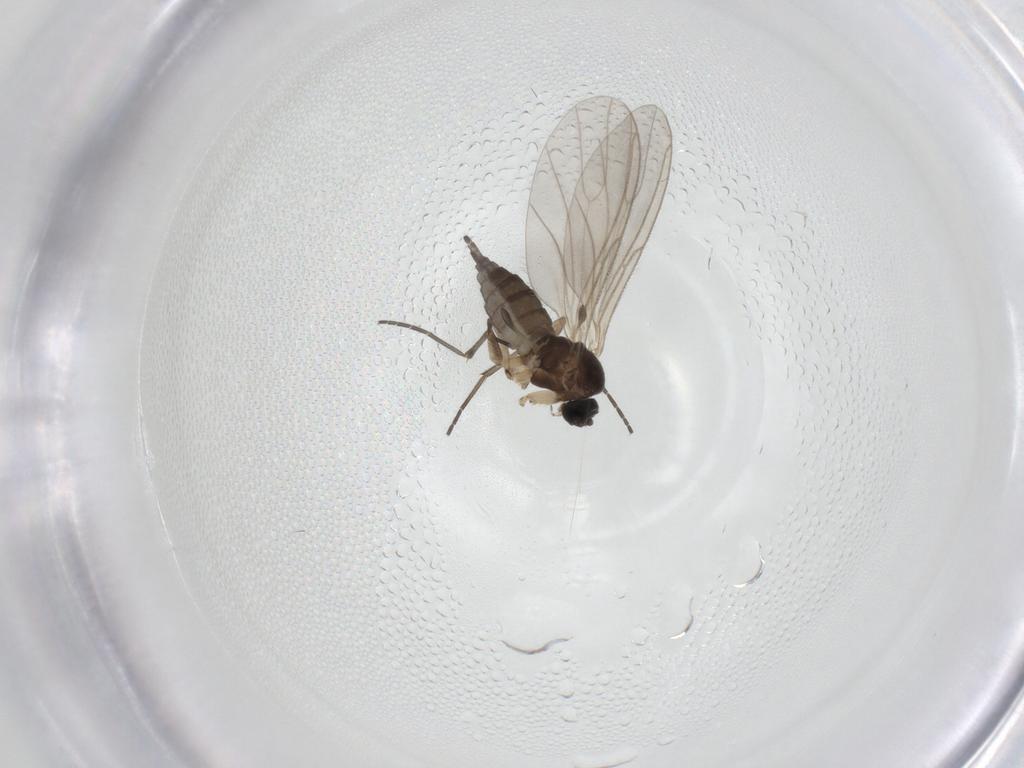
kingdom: Animalia
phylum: Arthropoda
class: Insecta
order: Diptera
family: Sciaridae
